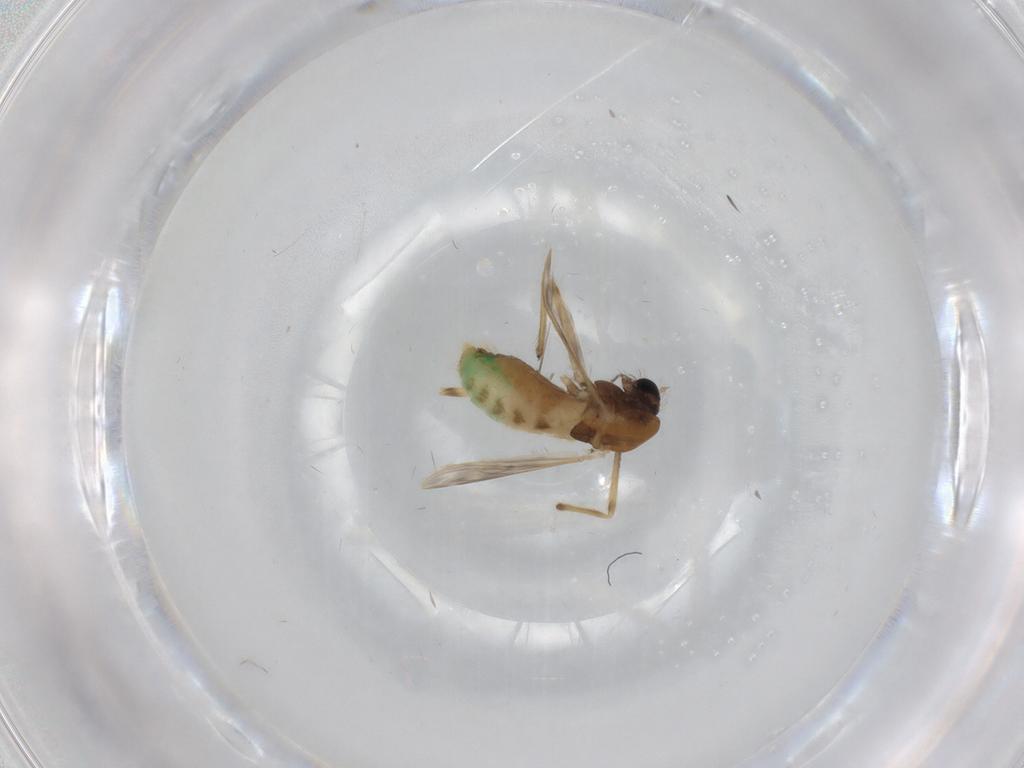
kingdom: Animalia
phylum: Arthropoda
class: Insecta
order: Diptera
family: Chironomidae
